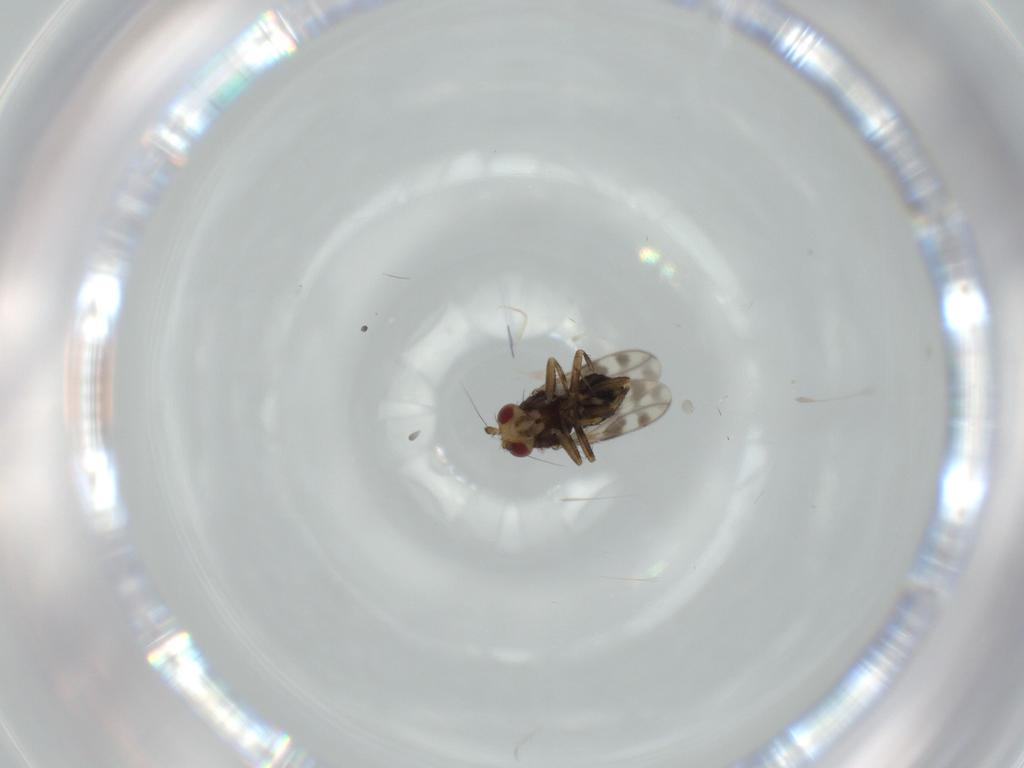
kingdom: Animalia
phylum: Arthropoda
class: Insecta
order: Diptera
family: Sphaeroceridae
